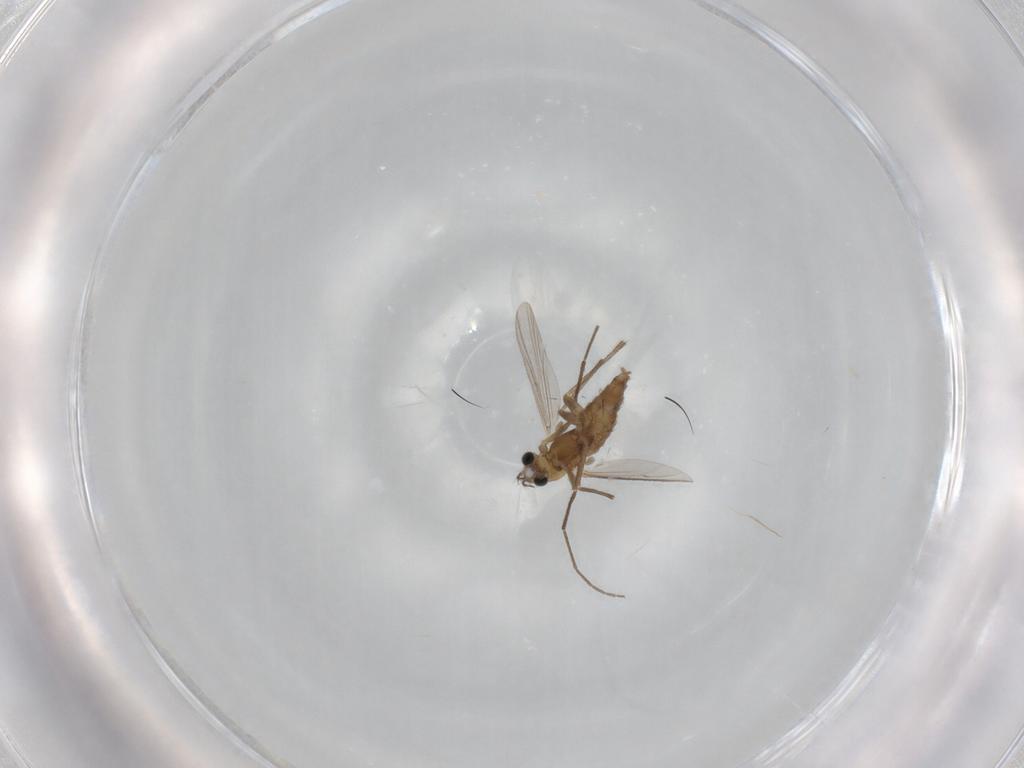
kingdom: Animalia
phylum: Arthropoda
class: Insecta
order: Diptera
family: Chironomidae
